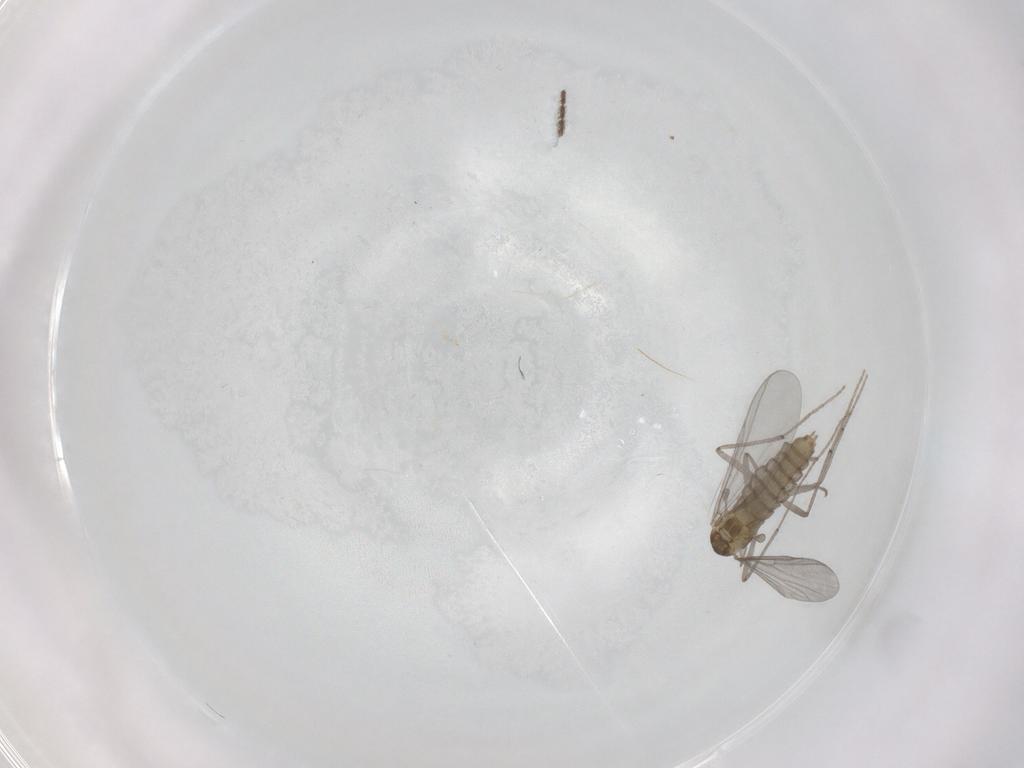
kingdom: Animalia
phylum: Arthropoda
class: Insecta
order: Diptera
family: Chironomidae
